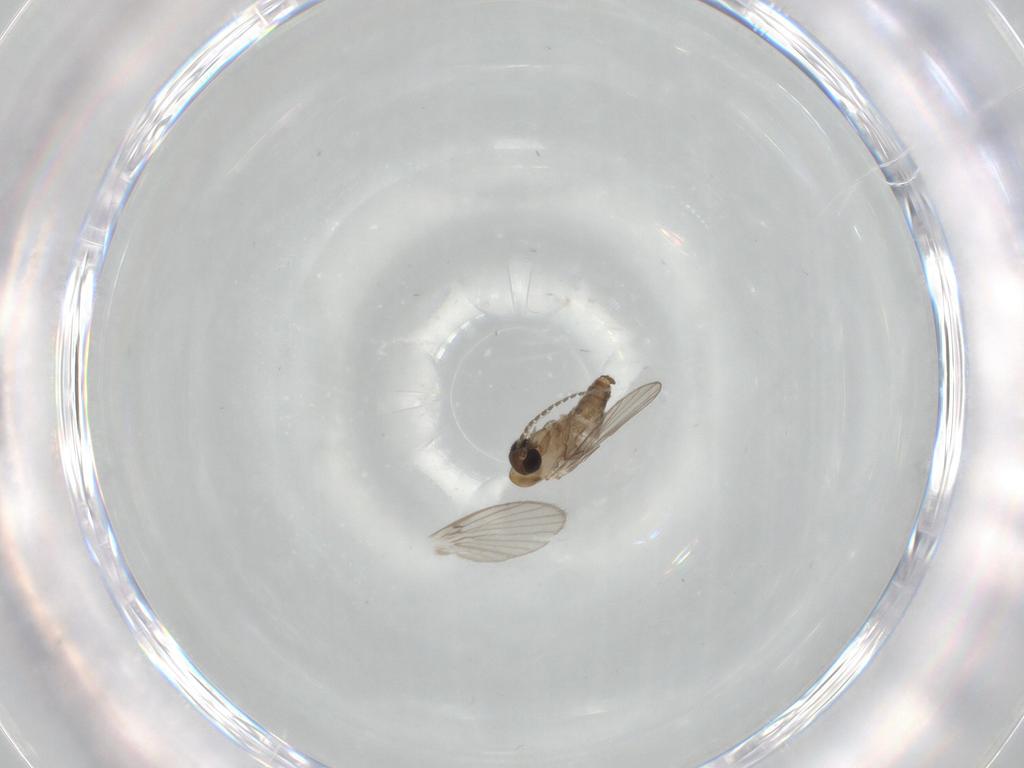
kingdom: Animalia
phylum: Arthropoda
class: Insecta
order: Diptera
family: Psychodidae
